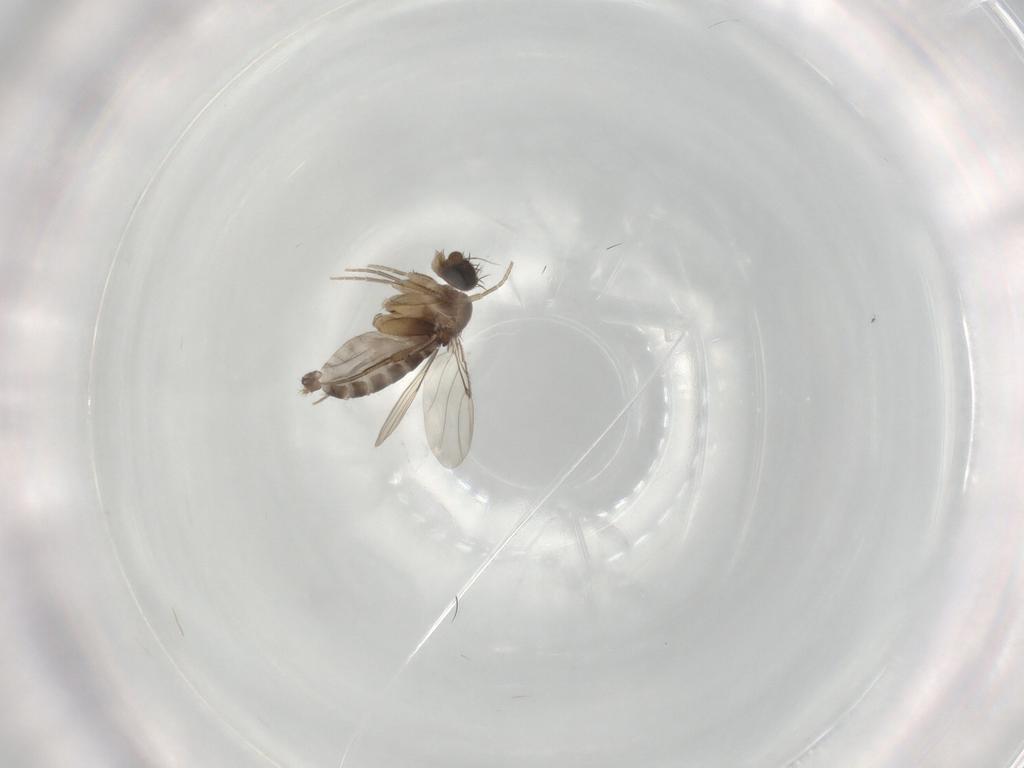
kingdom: Animalia
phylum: Arthropoda
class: Insecta
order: Diptera
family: Phoridae
